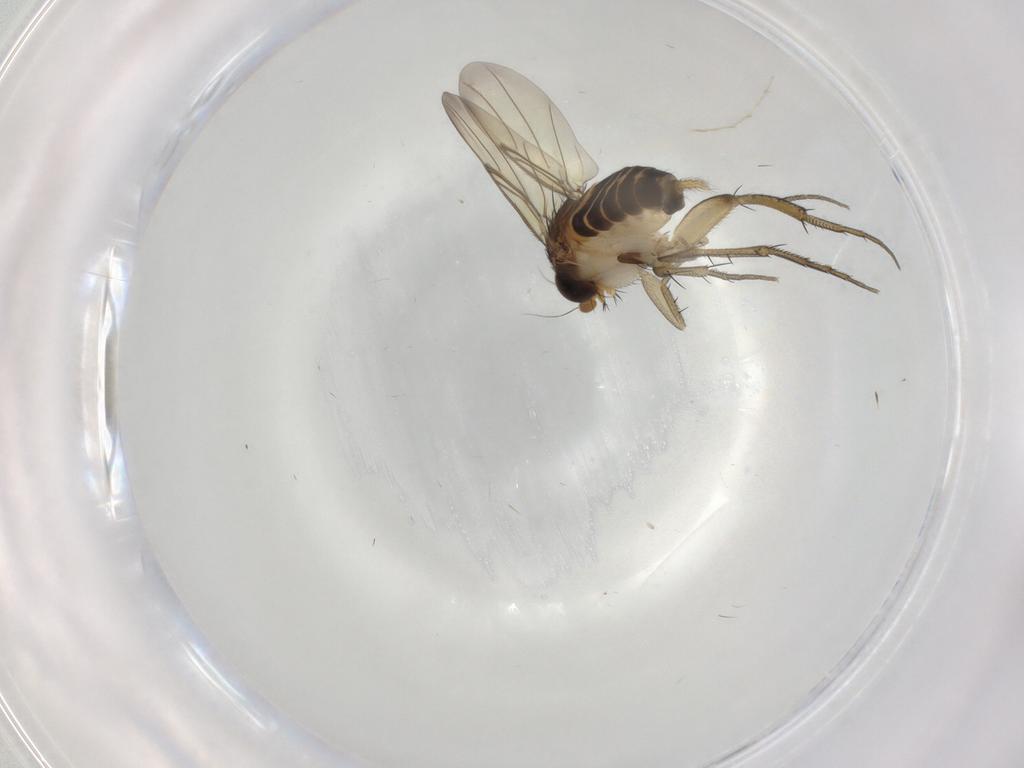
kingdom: Animalia
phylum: Arthropoda
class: Insecta
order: Diptera
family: Phoridae
